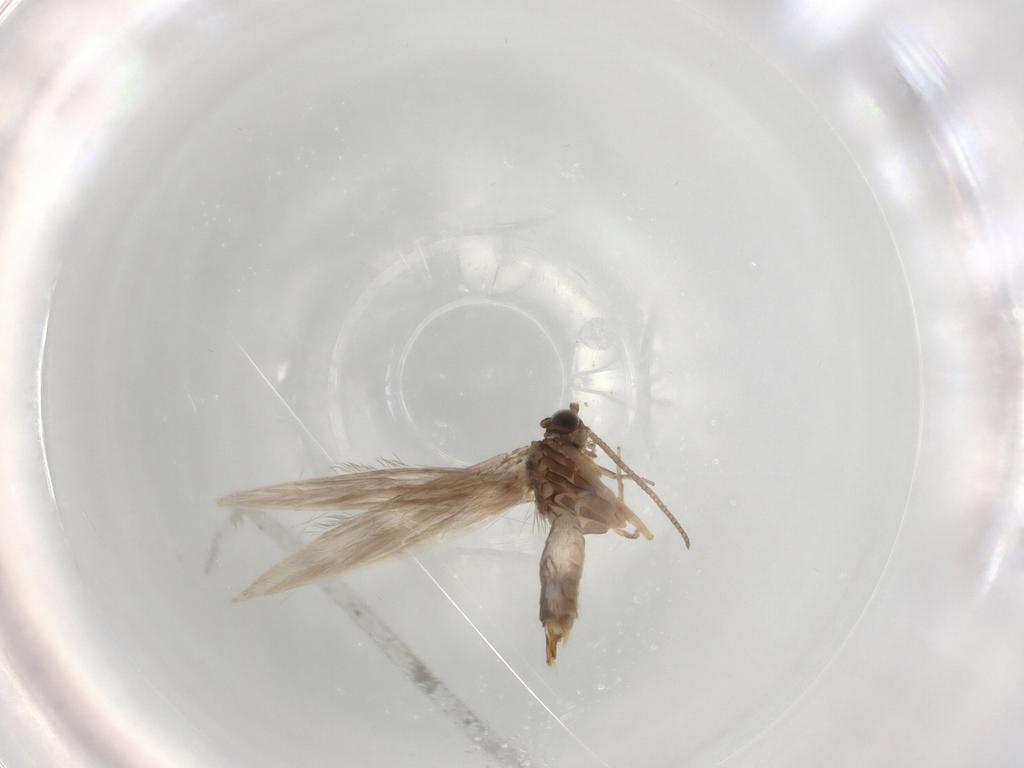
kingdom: Animalia
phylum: Arthropoda
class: Insecta
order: Trichoptera
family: Hydroptilidae
